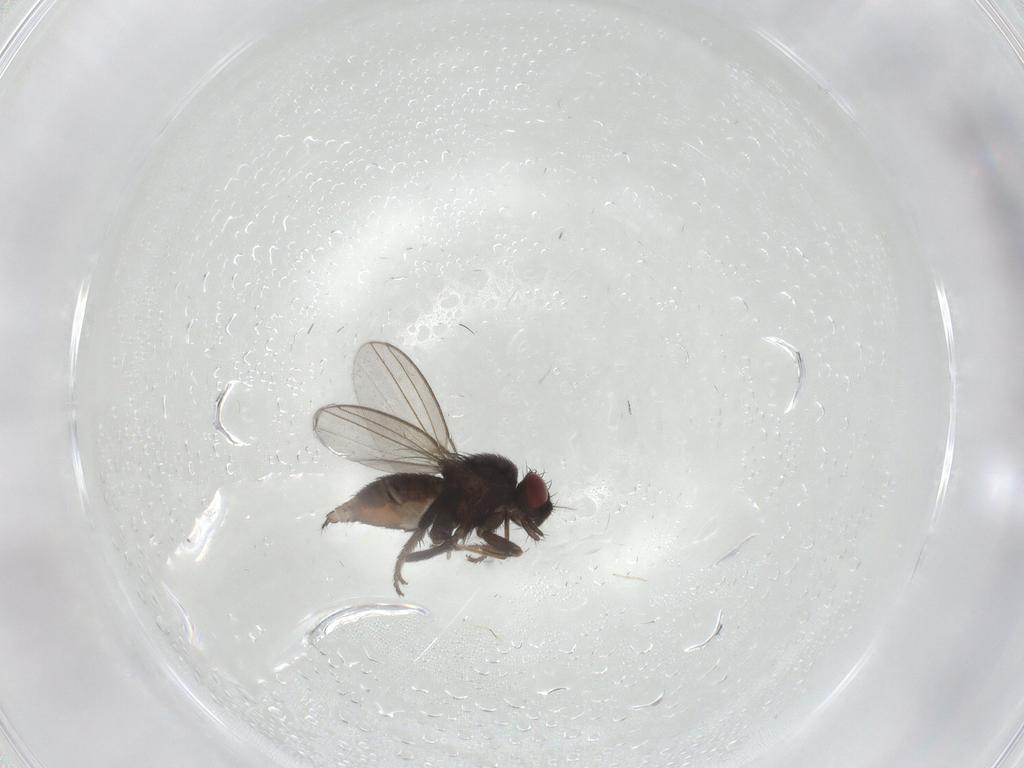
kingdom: Animalia
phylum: Arthropoda
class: Insecta
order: Diptera
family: Milichiidae
